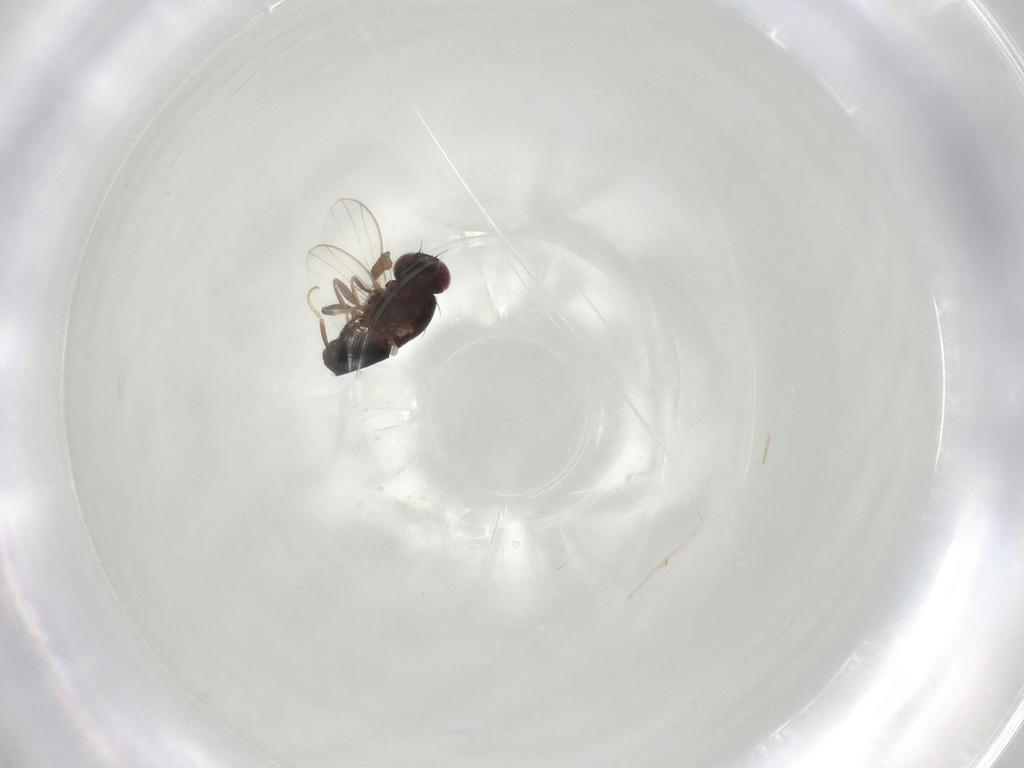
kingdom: Animalia
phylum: Arthropoda
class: Insecta
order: Diptera
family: Carnidae
